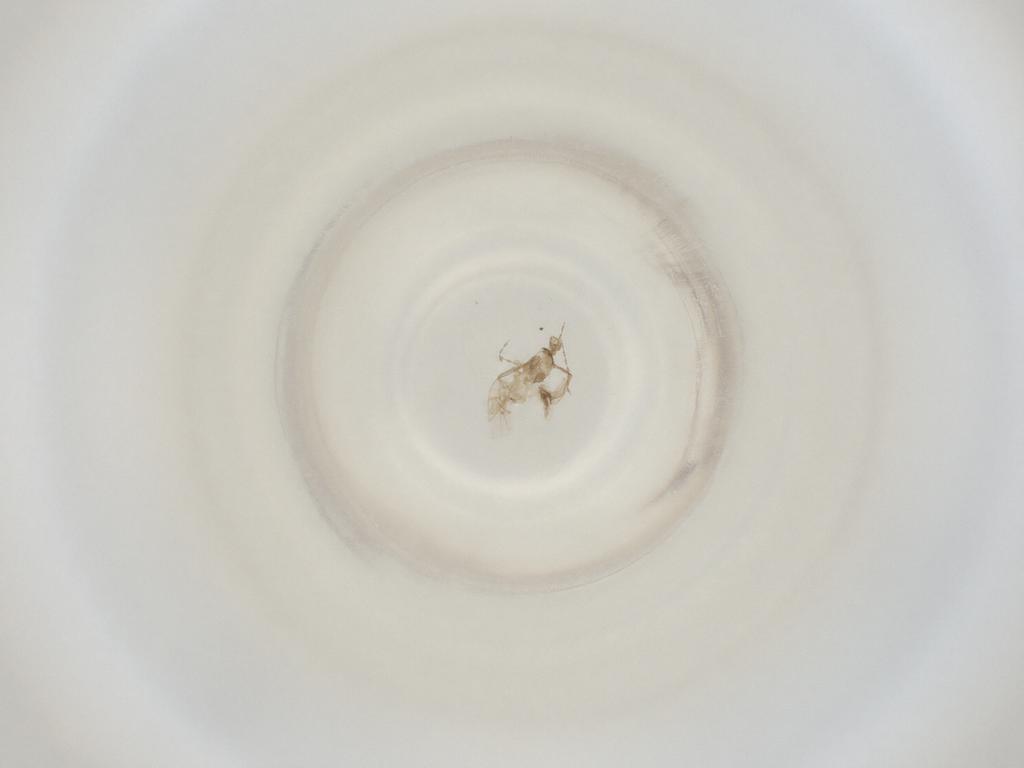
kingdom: Animalia
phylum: Arthropoda
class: Insecta
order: Diptera
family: Cecidomyiidae
